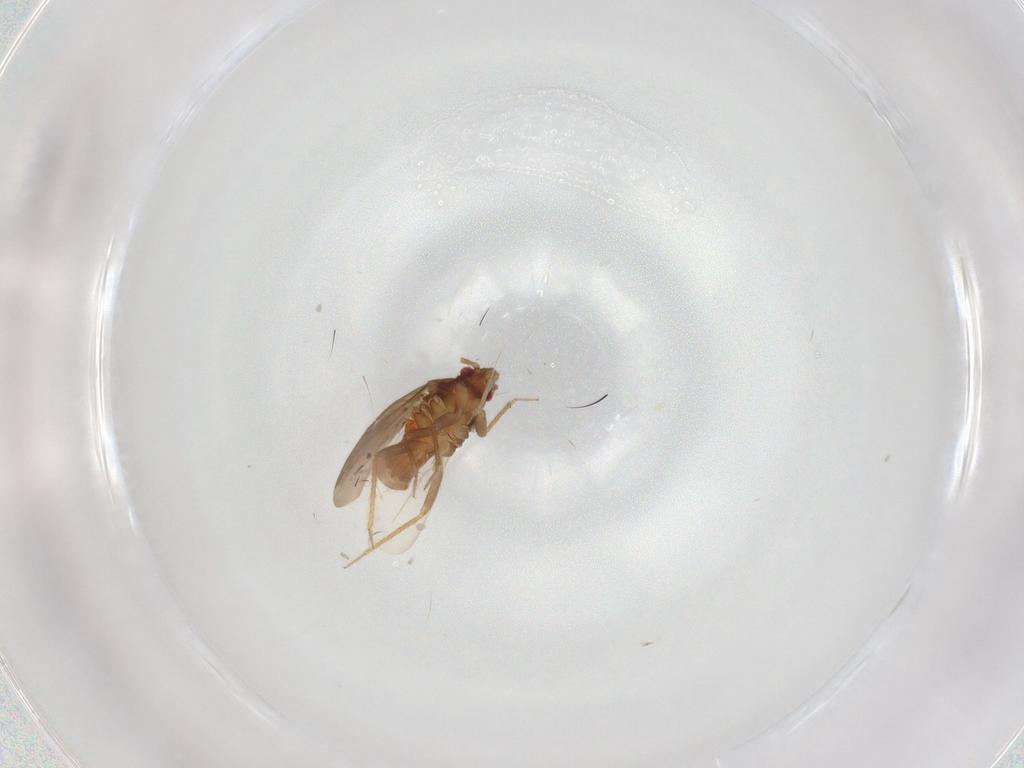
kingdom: Animalia
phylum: Arthropoda
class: Insecta
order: Hemiptera
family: Ceratocombidae
